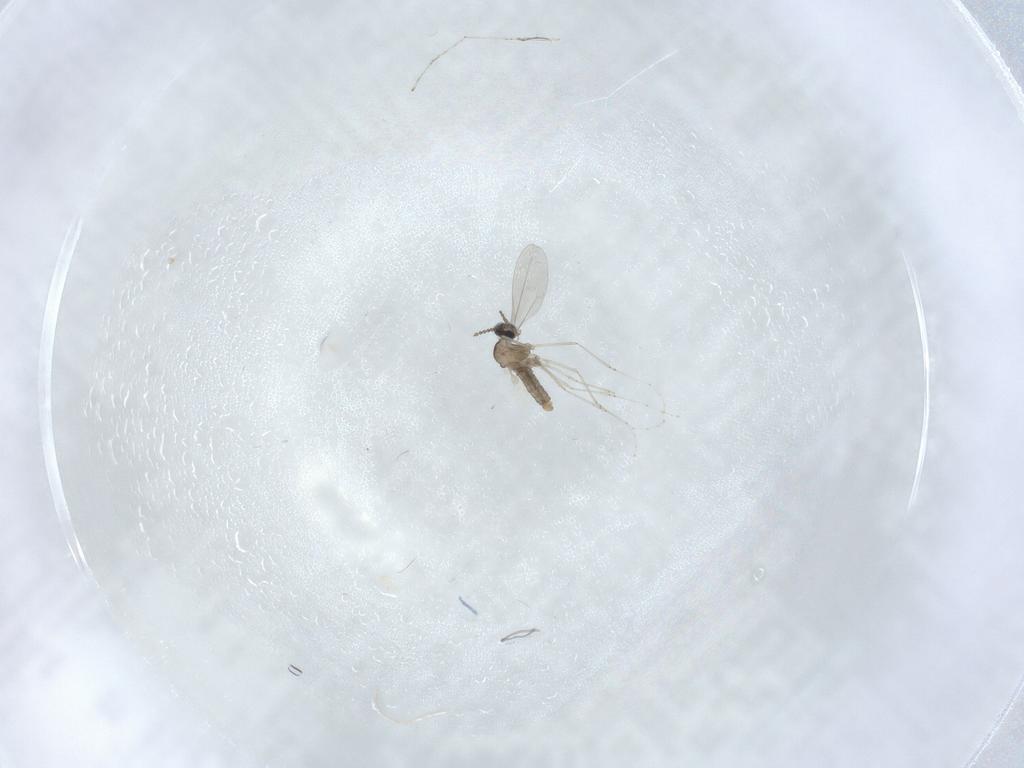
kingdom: Animalia
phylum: Arthropoda
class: Insecta
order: Diptera
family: Cecidomyiidae
